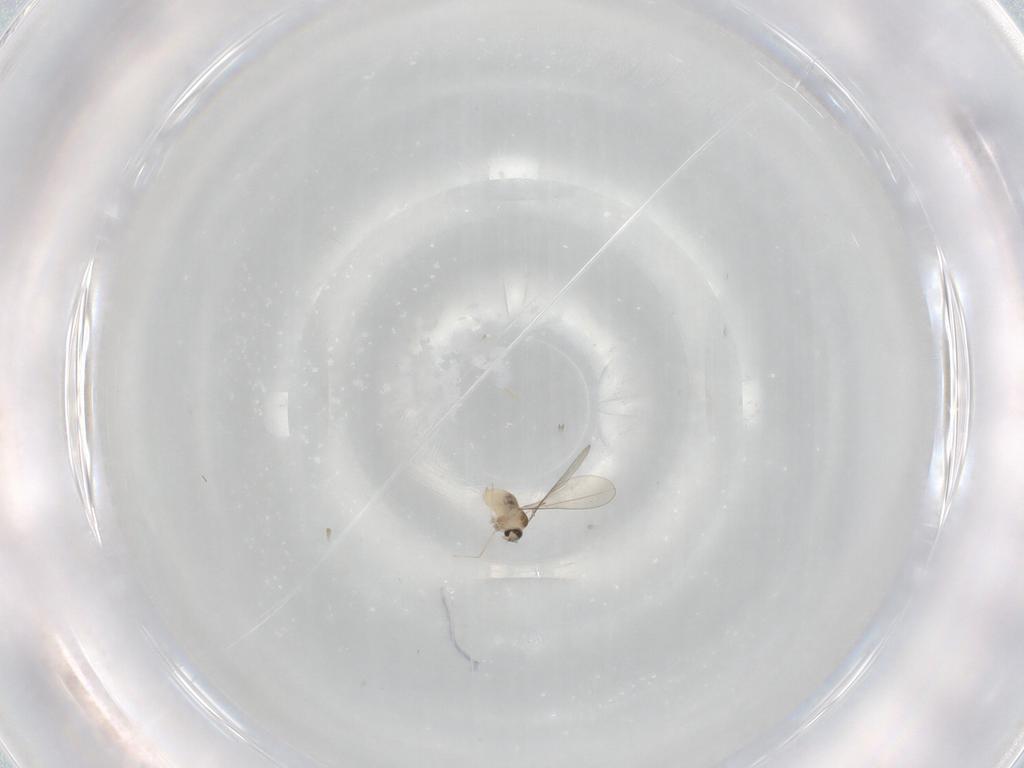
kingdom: Animalia
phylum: Arthropoda
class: Insecta
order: Diptera
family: Cecidomyiidae
